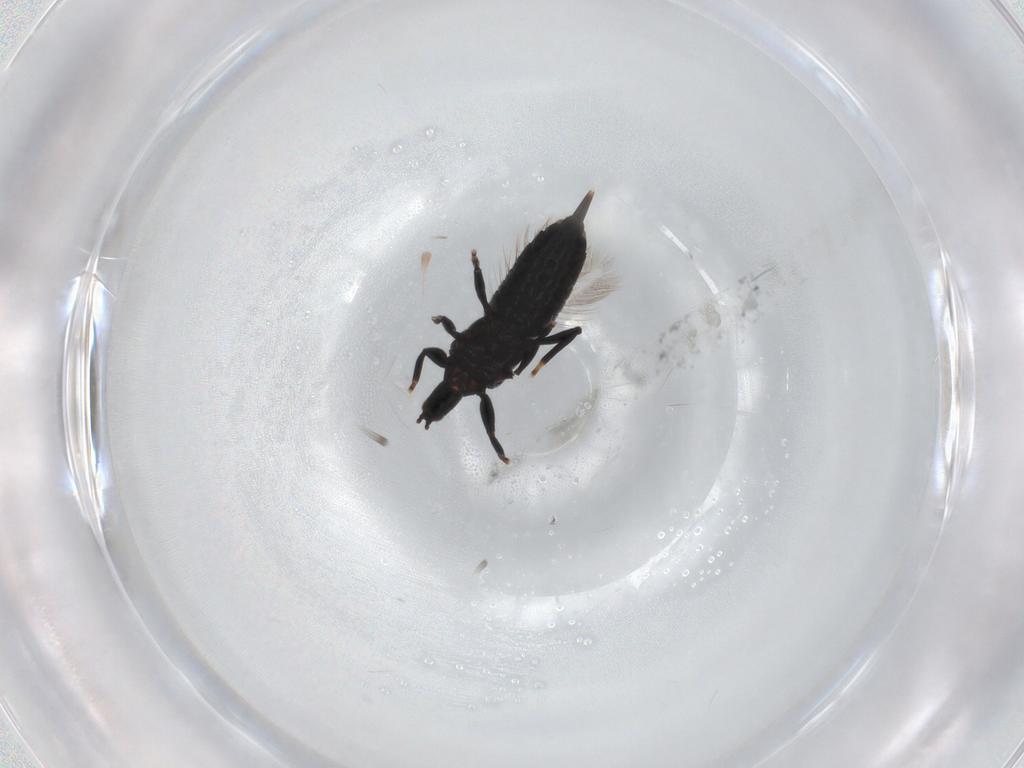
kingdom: Animalia
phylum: Arthropoda
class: Insecta
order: Thysanoptera
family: Phlaeothripidae
